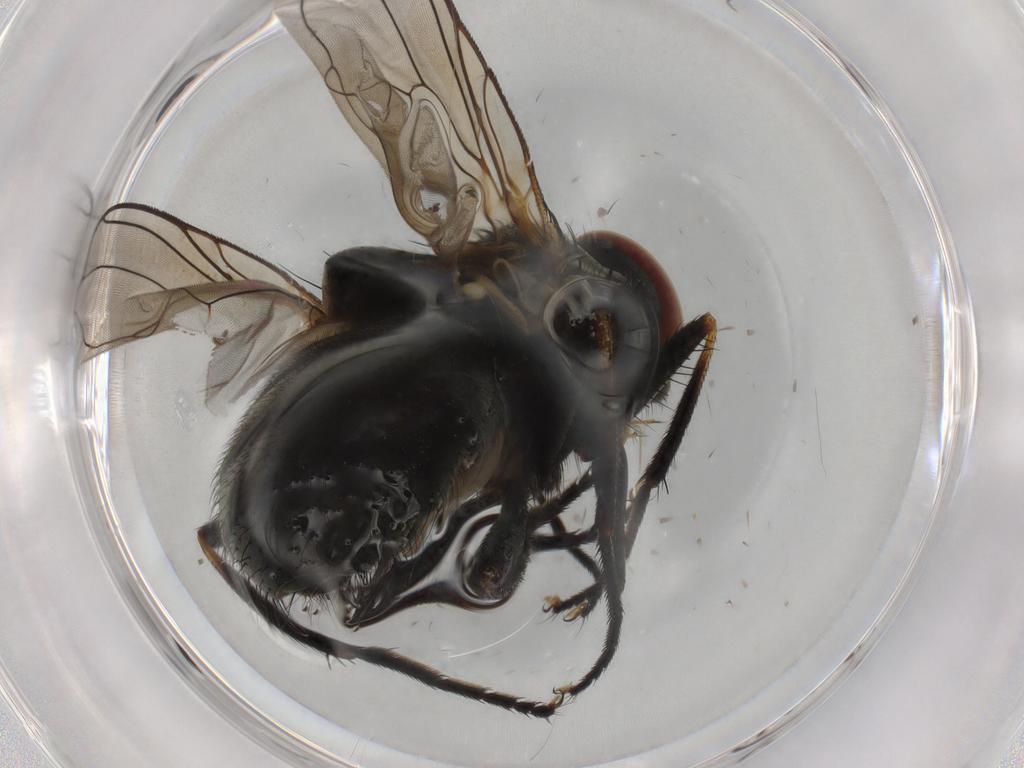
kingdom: Animalia
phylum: Arthropoda
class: Insecta
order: Diptera
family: Muscidae
